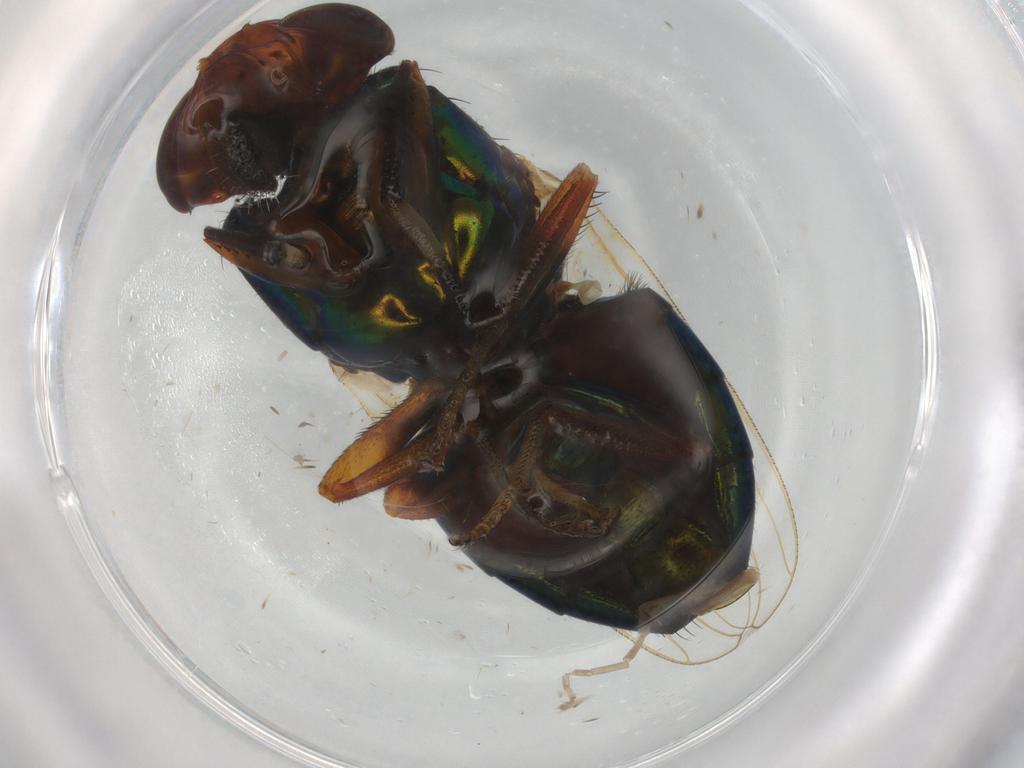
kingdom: Animalia
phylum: Arthropoda
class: Insecta
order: Diptera
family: Ulidiidae
